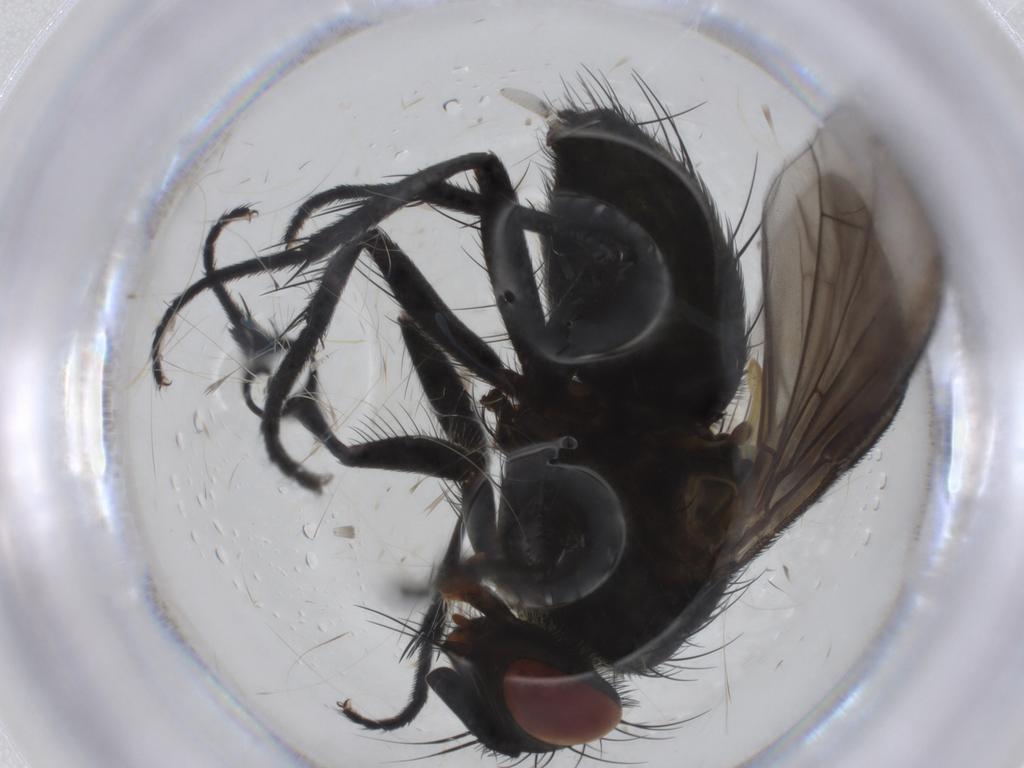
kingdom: Animalia
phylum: Arthropoda
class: Insecta
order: Diptera
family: Tachinidae
